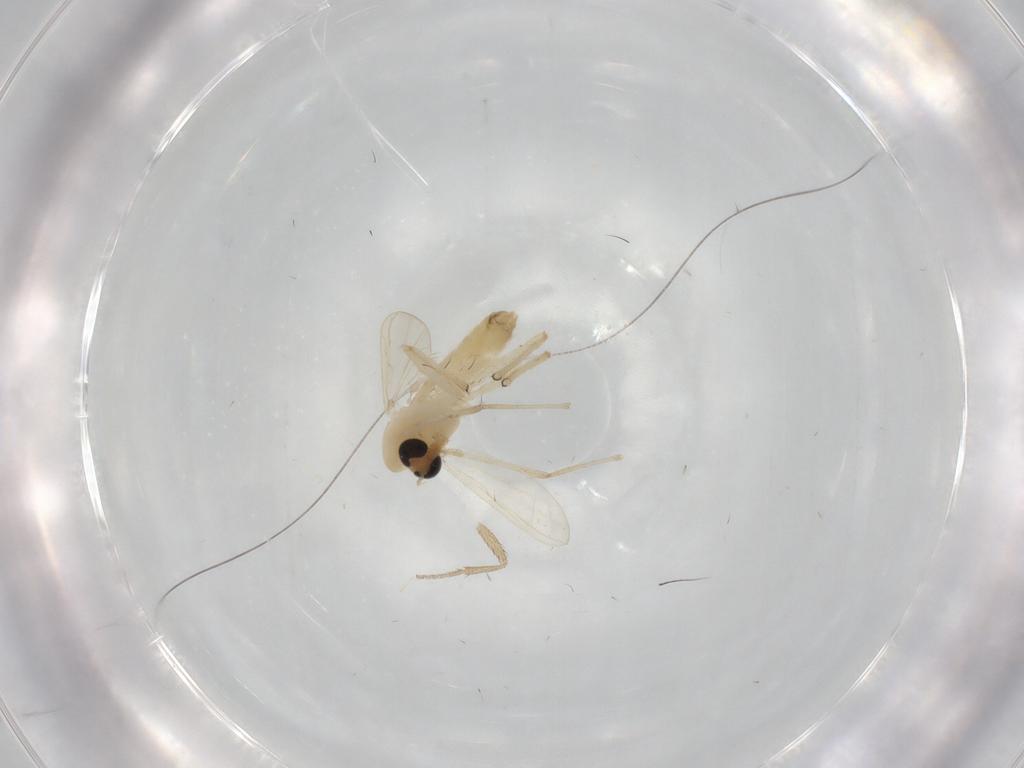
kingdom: Animalia
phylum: Arthropoda
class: Insecta
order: Diptera
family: Chironomidae
